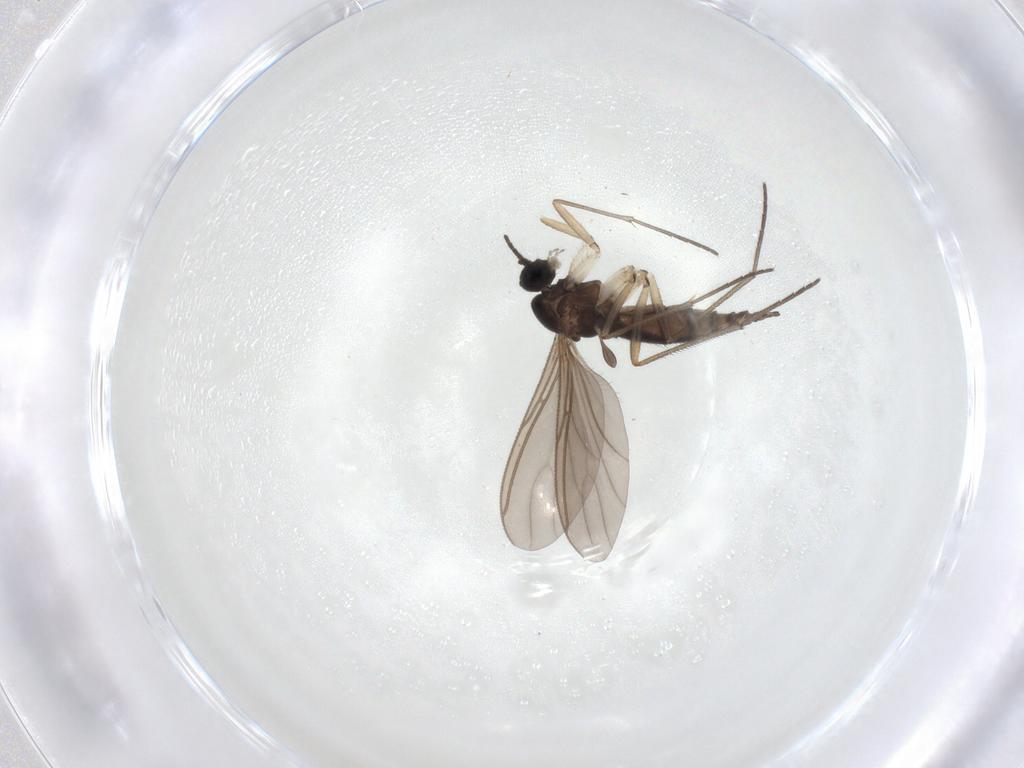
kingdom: Animalia
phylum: Arthropoda
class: Insecta
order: Diptera
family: Sciaridae
